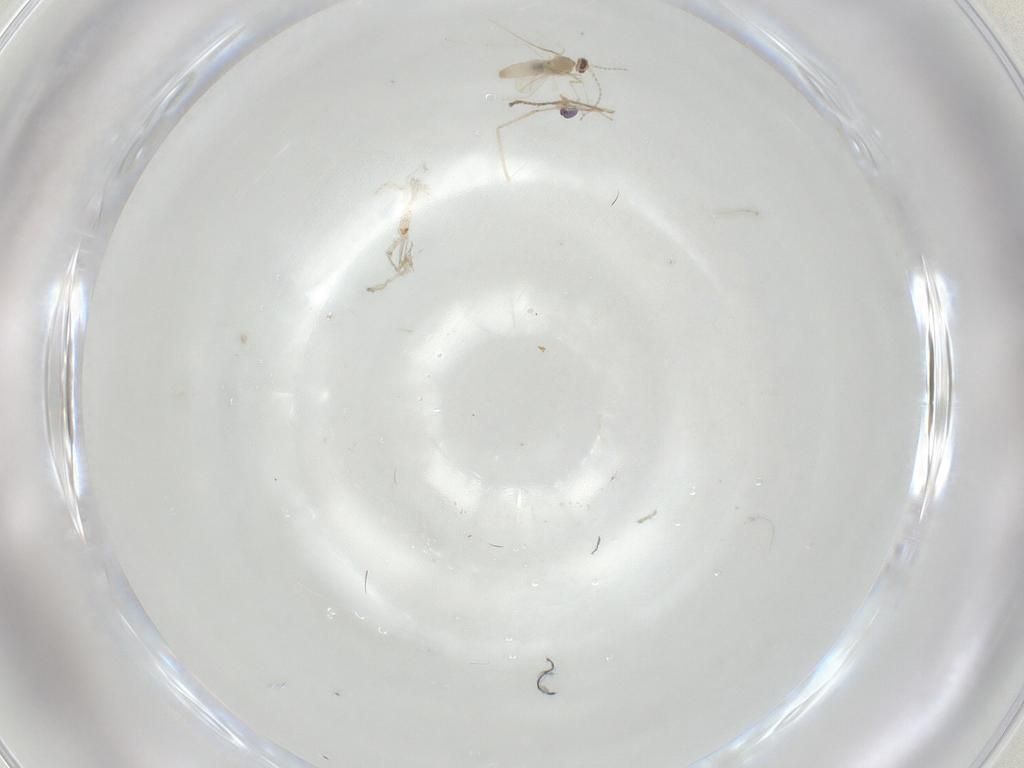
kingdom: Animalia
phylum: Arthropoda
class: Insecta
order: Diptera
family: Cecidomyiidae
